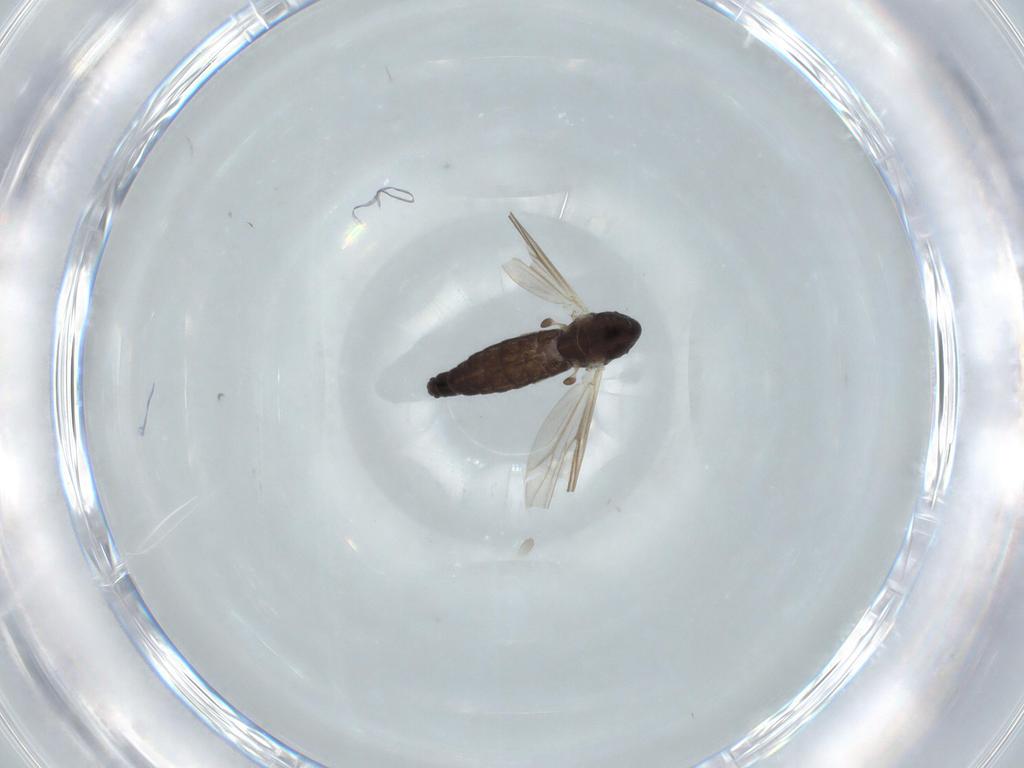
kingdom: Animalia
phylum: Arthropoda
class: Insecta
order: Diptera
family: Chironomidae
